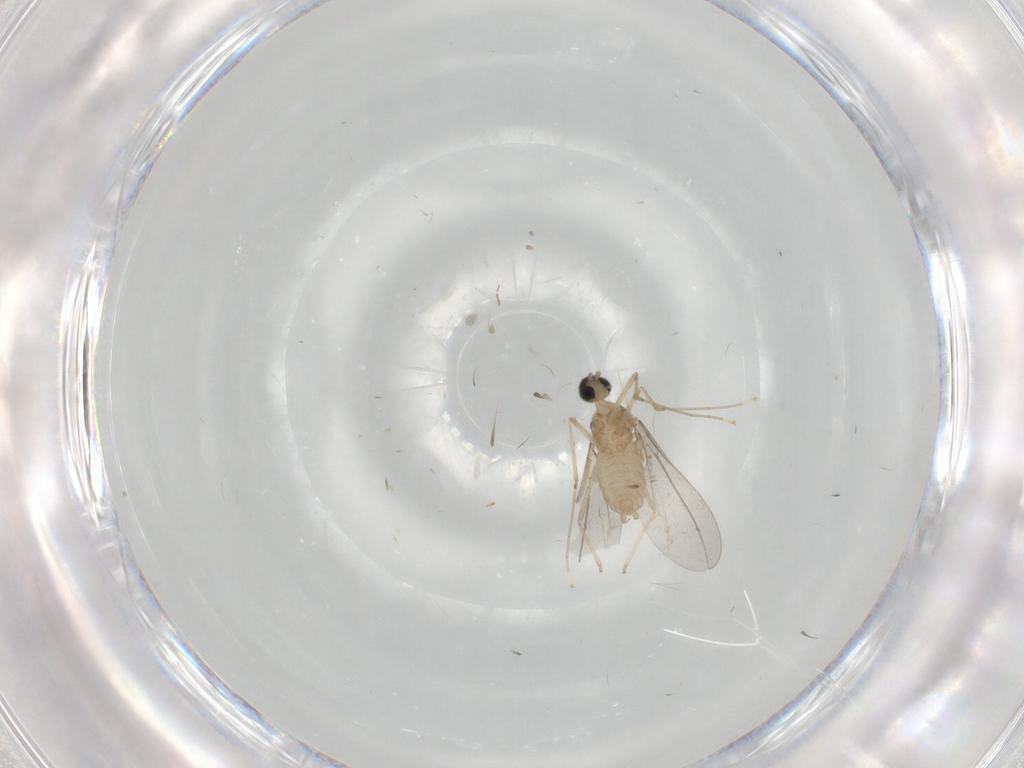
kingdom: Animalia
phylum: Arthropoda
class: Insecta
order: Diptera
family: Cecidomyiidae
